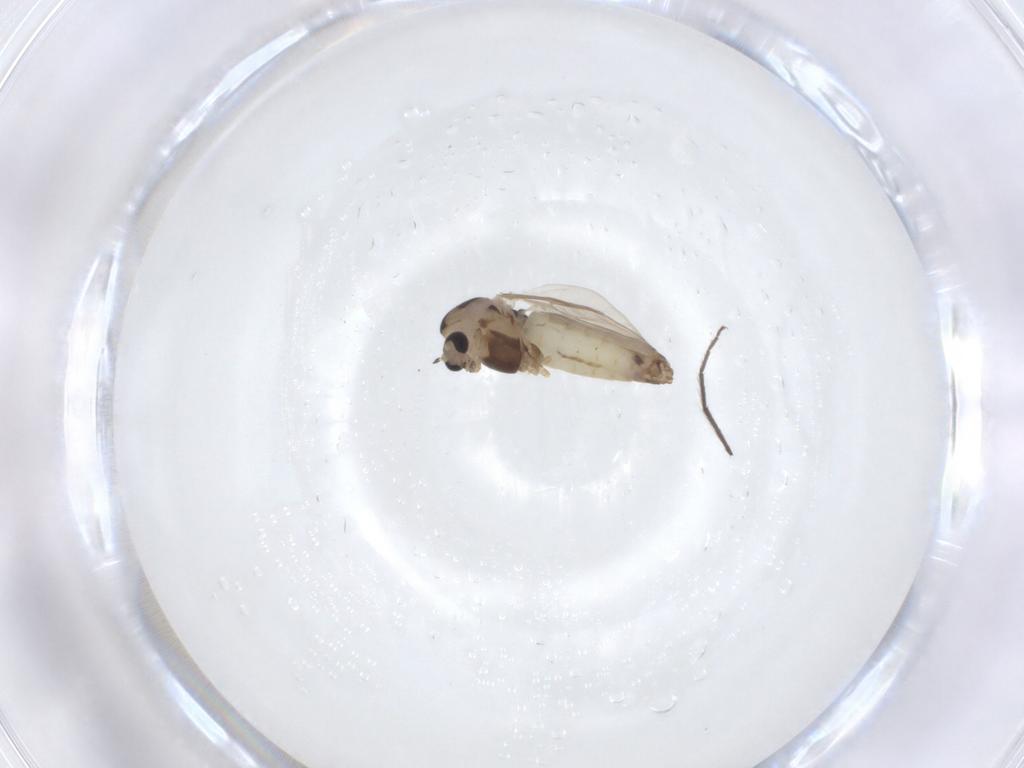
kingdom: Animalia
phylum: Arthropoda
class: Insecta
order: Diptera
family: Chironomidae
